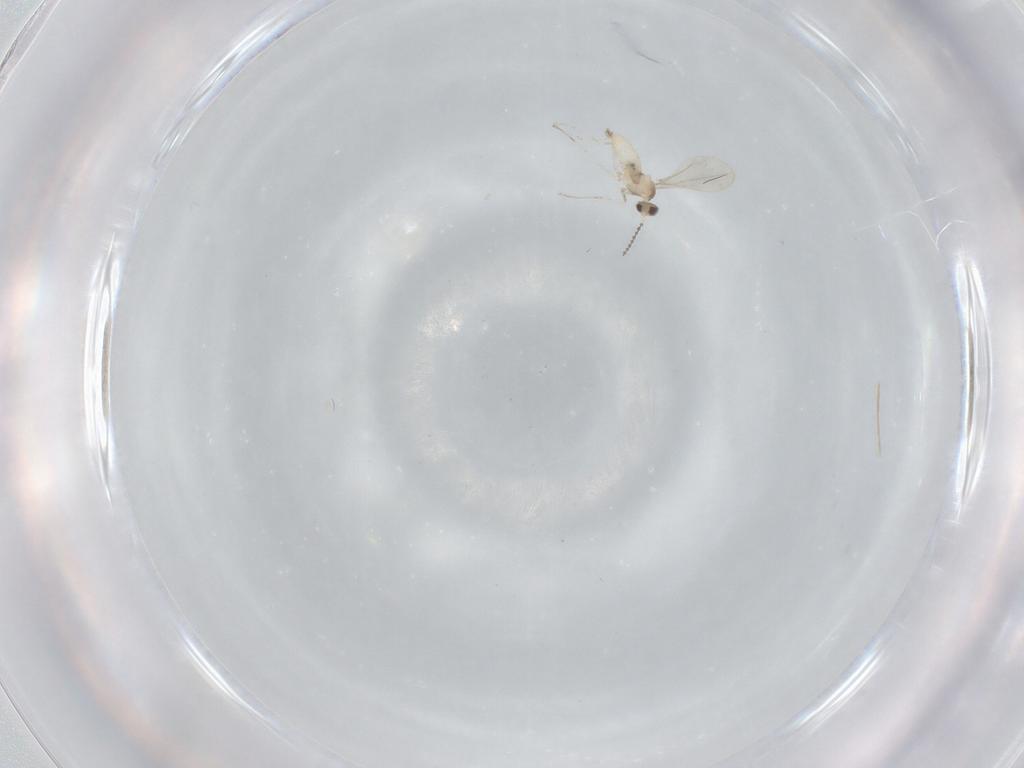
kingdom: Animalia
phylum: Arthropoda
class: Insecta
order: Diptera
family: Cecidomyiidae
